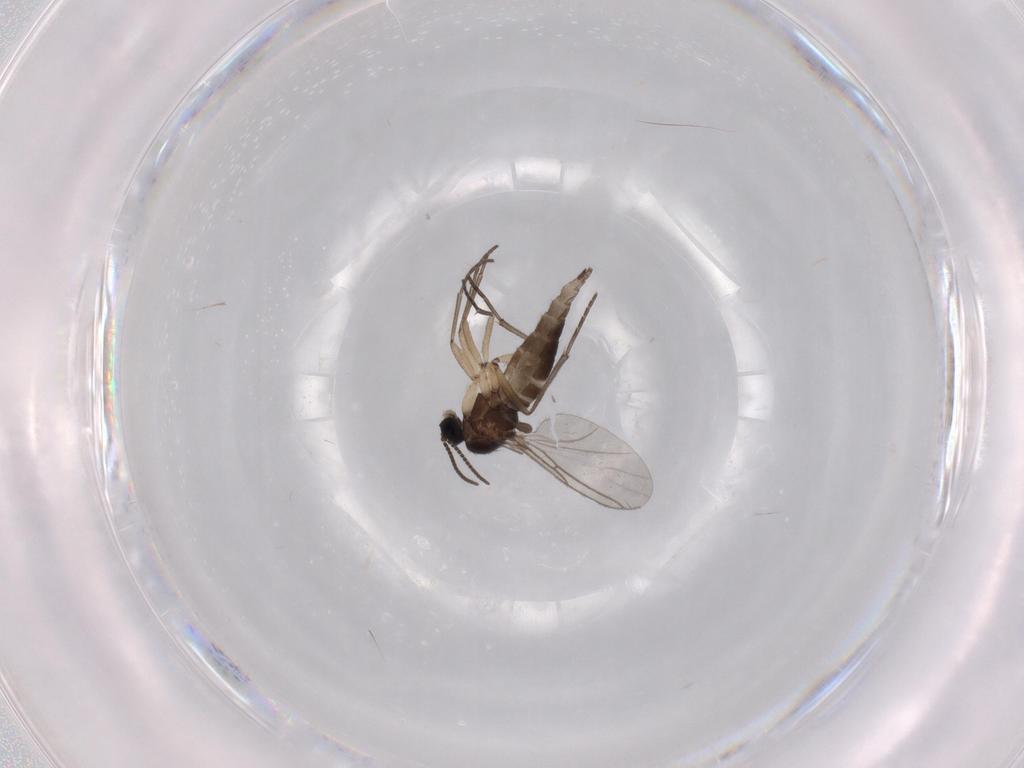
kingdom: Animalia
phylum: Arthropoda
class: Insecta
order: Diptera
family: Sciaridae
